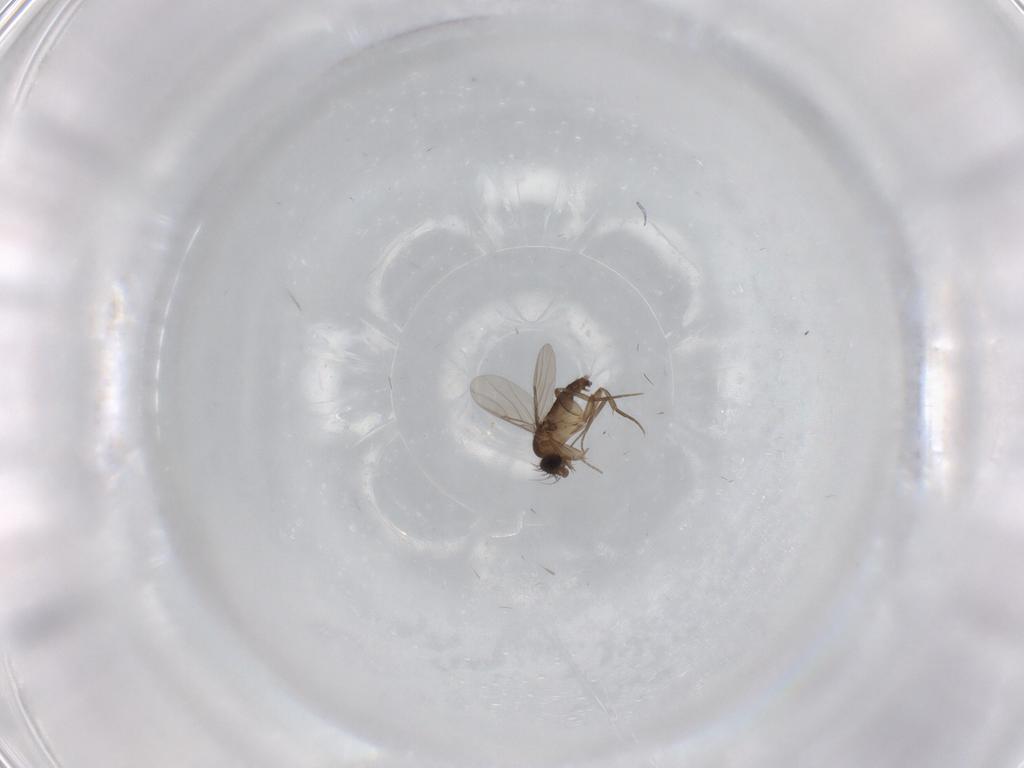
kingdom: Animalia
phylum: Arthropoda
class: Insecta
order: Diptera
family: Phoridae
